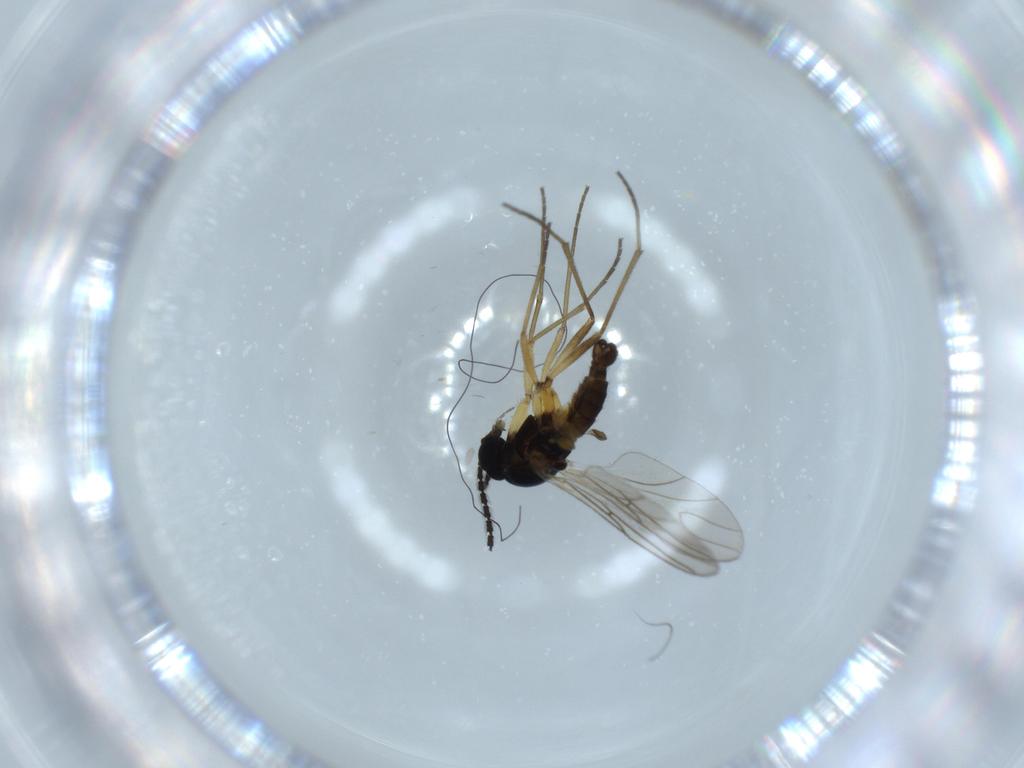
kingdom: Animalia
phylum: Arthropoda
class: Insecta
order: Diptera
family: Sciaridae
